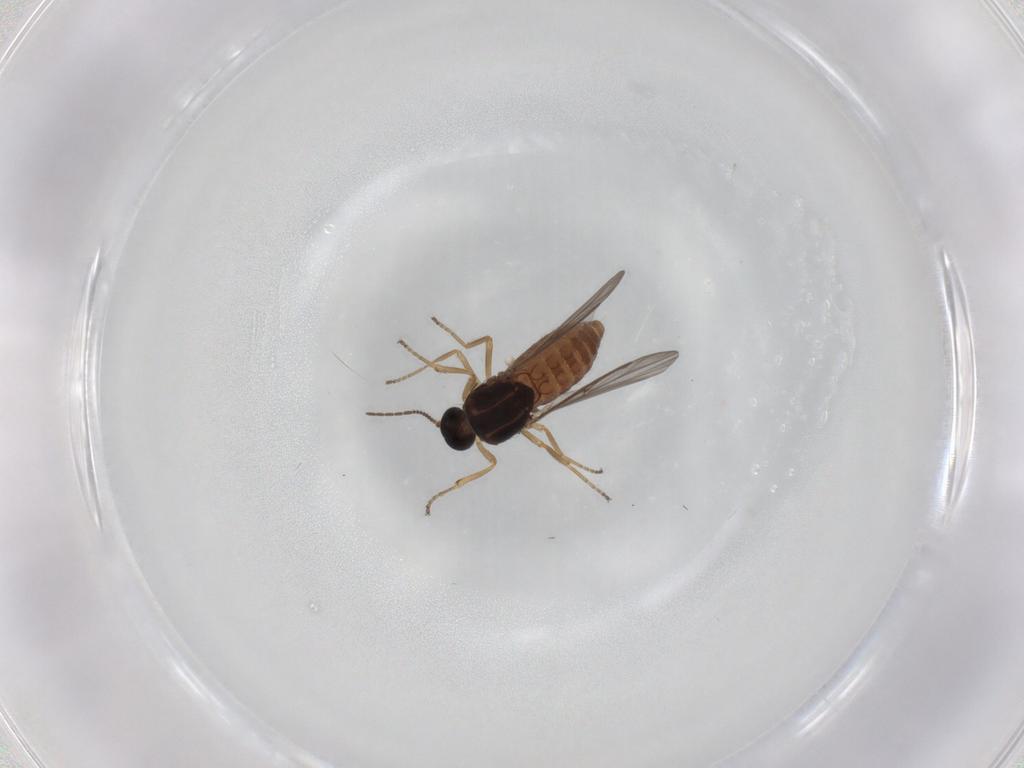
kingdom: Animalia
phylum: Arthropoda
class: Insecta
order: Diptera
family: Ceratopogonidae
